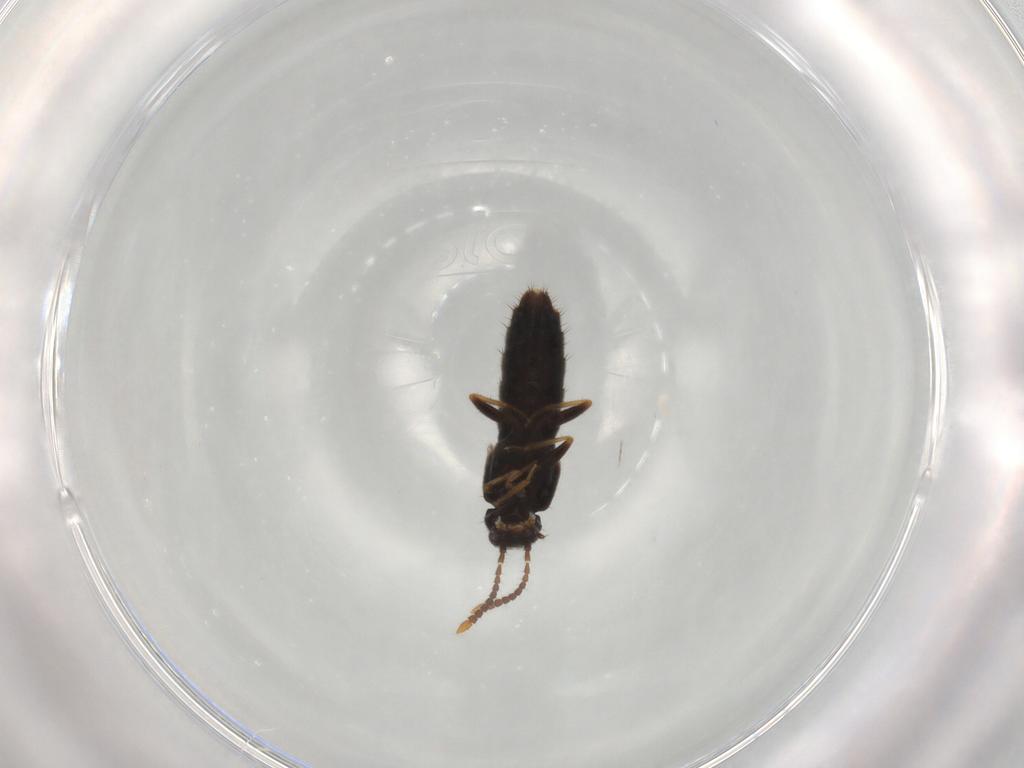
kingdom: Animalia
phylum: Arthropoda
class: Insecta
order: Coleoptera
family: Staphylinidae
